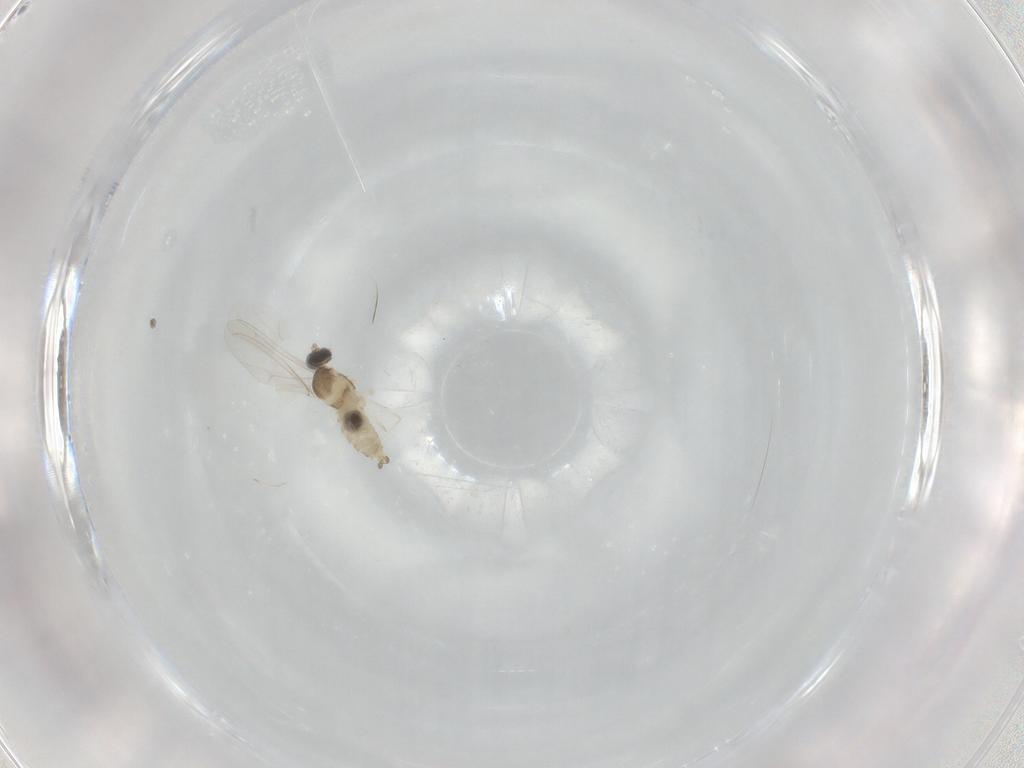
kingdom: Animalia
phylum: Arthropoda
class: Insecta
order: Diptera
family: Cecidomyiidae
